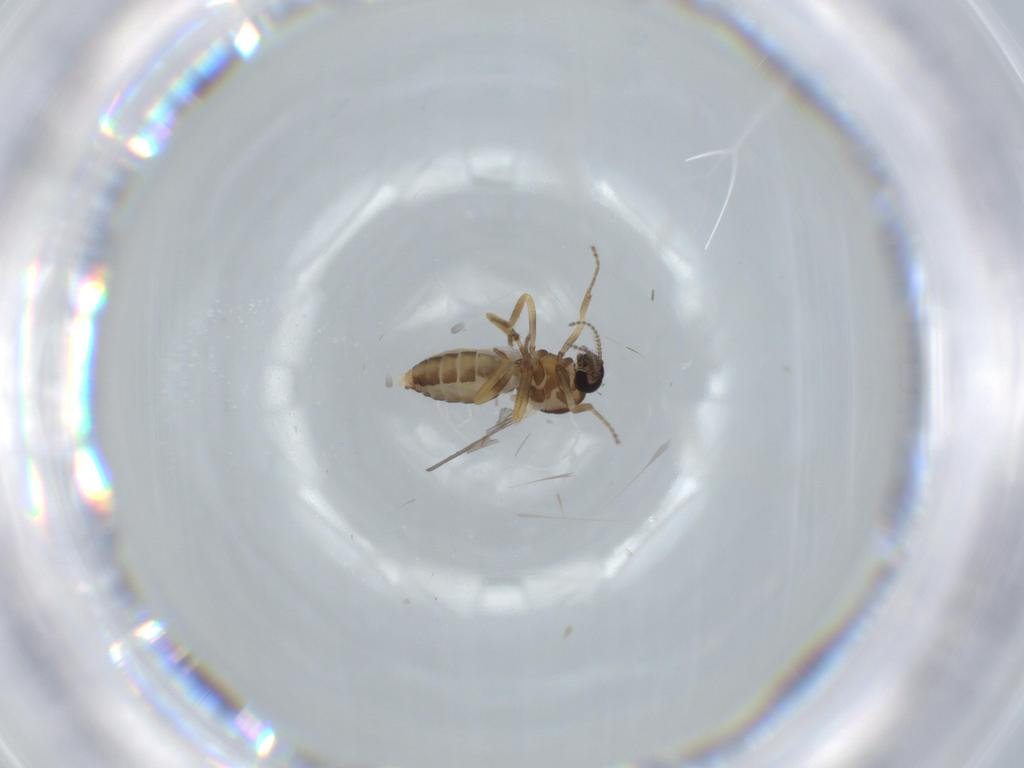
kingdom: Animalia
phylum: Arthropoda
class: Insecta
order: Diptera
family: Ceratopogonidae
